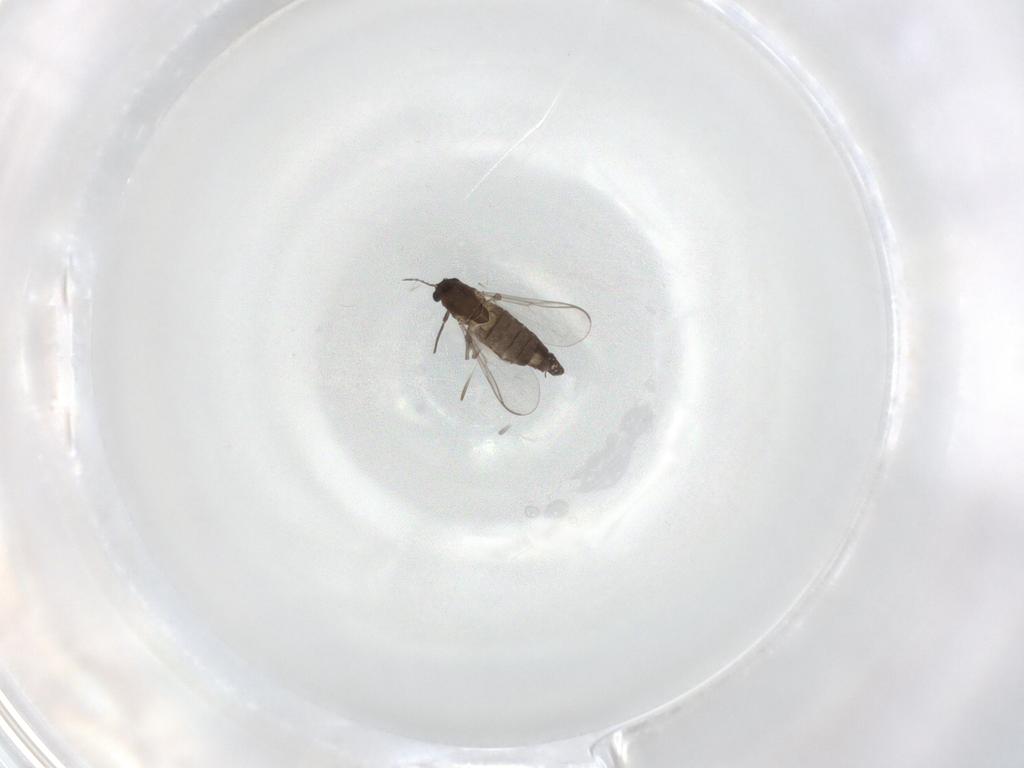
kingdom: Animalia
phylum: Arthropoda
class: Insecta
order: Diptera
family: Chironomidae
